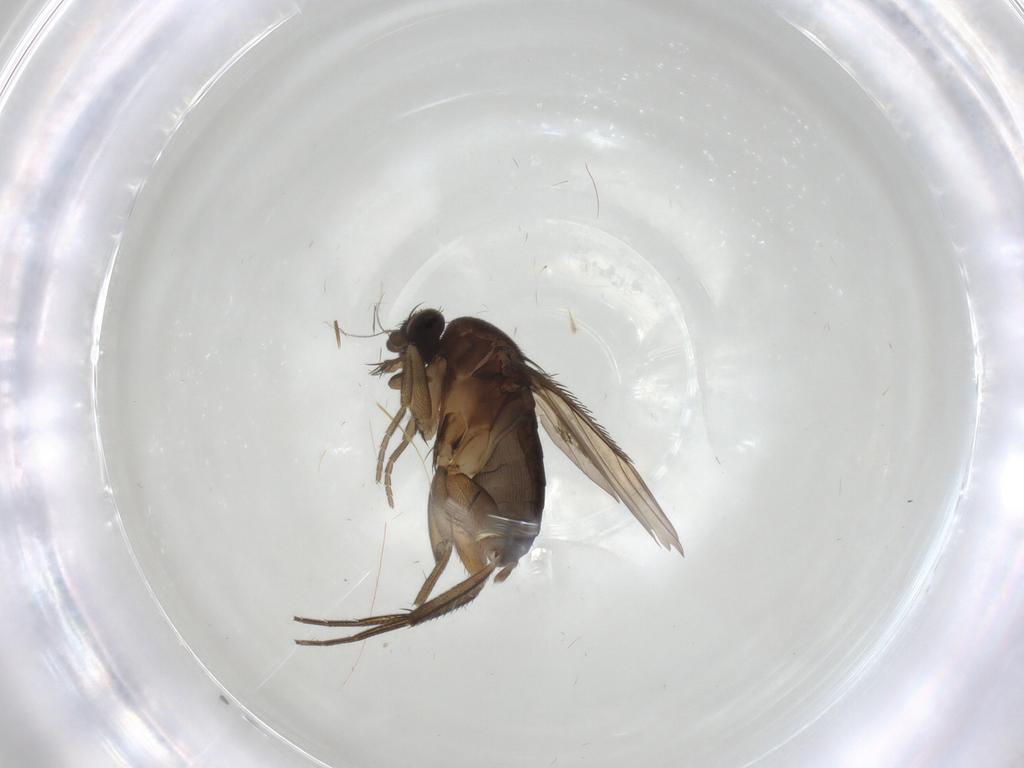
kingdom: Animalia
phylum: Arthropoda
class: Insecta
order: Diptera
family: Phoridae
